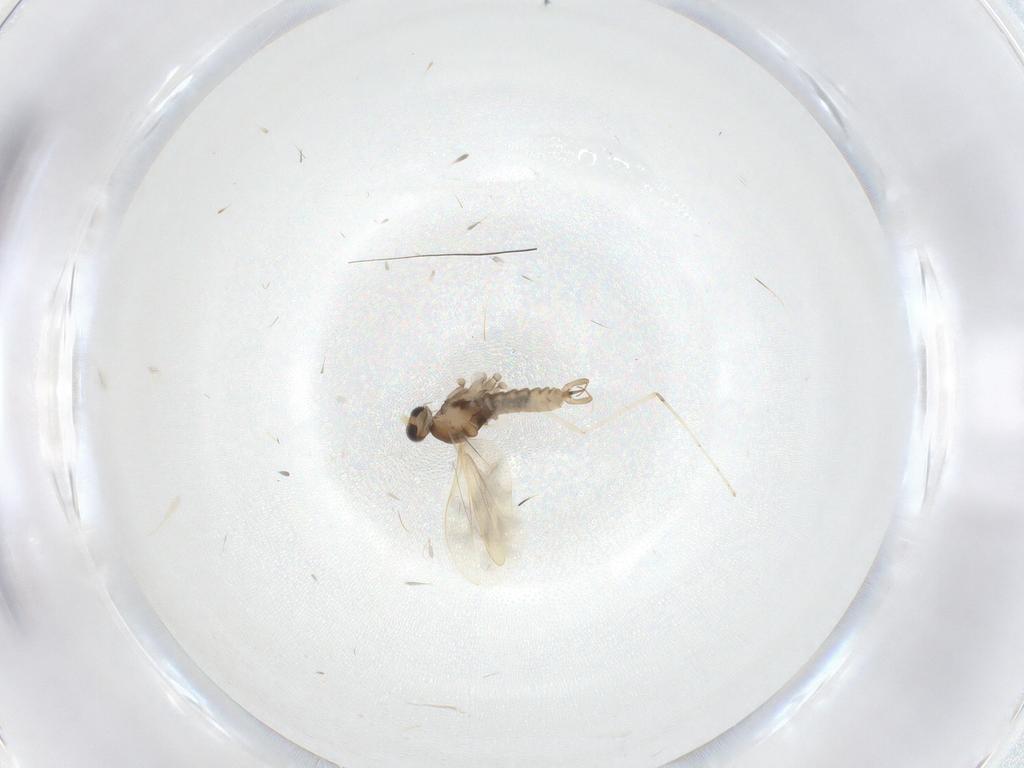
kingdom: Animalia
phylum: Arthropoda
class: Insecta
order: Diptera
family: Cecidomyiidae
